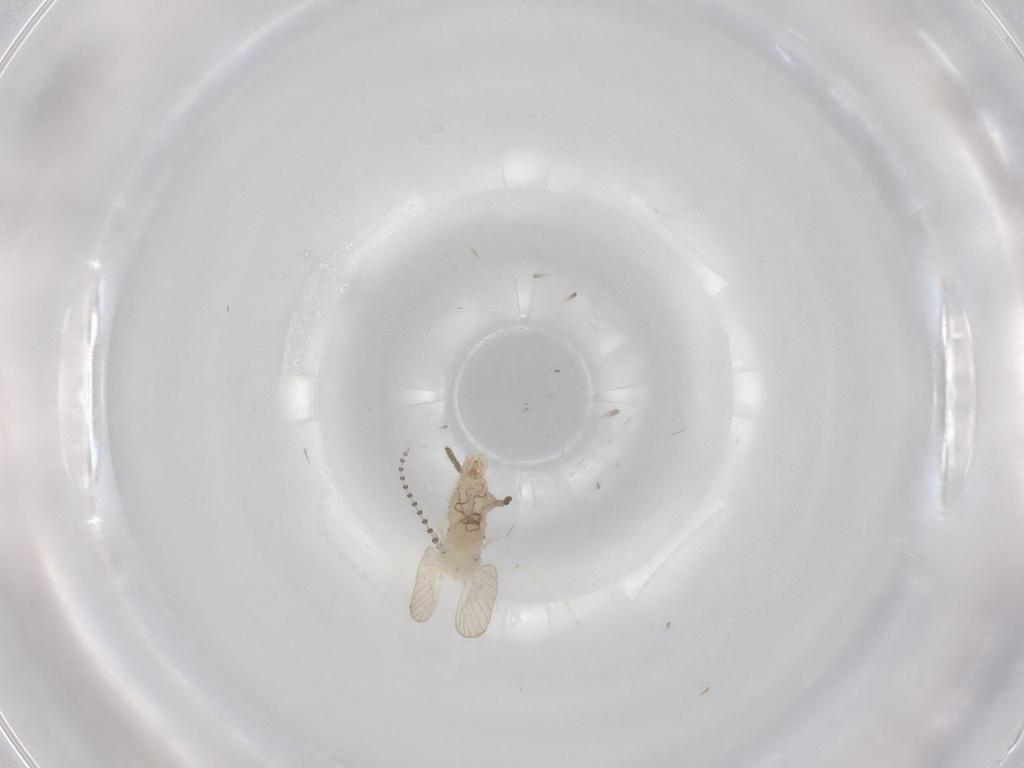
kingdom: Animalia
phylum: Arthropoda
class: Insecta
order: Diptera
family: Psychodidae
